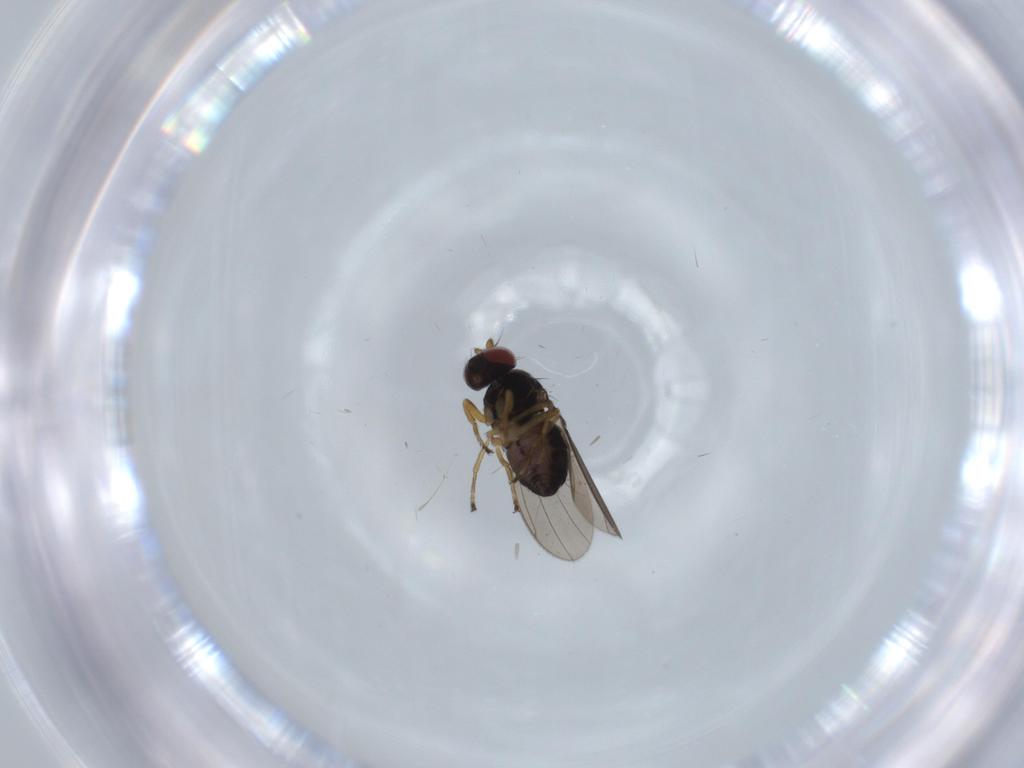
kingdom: Animalia
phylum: Arthropoda
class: Insecta
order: Diptera
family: Ephydridae
